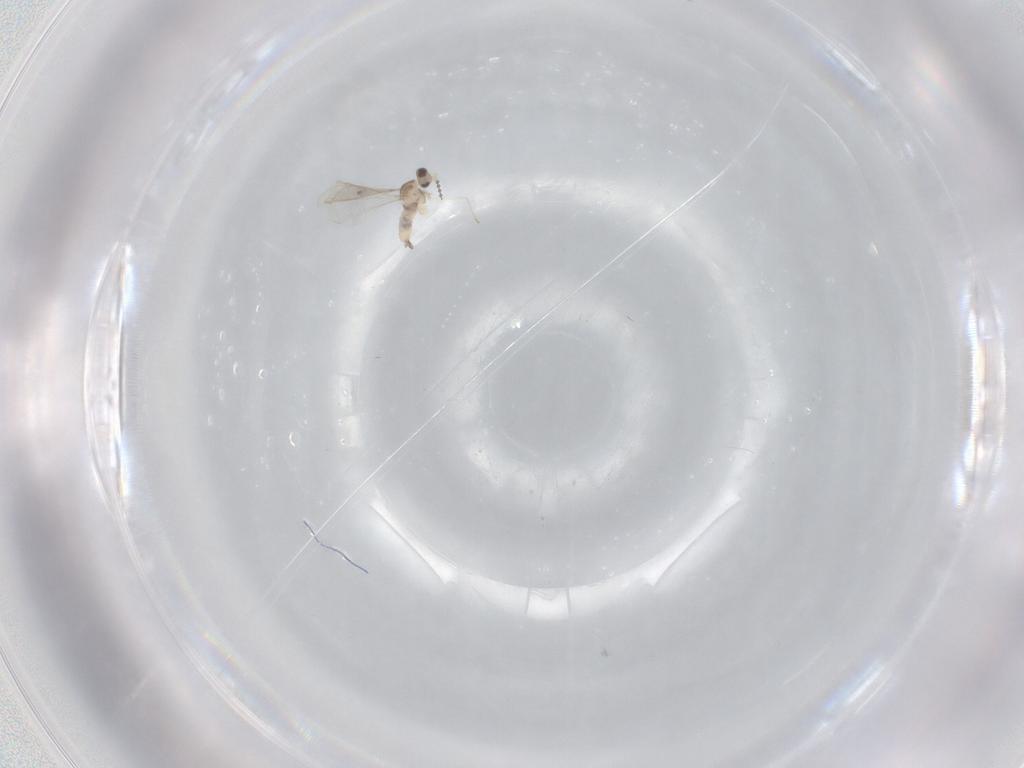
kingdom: Animalia
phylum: Arthropoda
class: Insecta
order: Diptera
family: Cecidomyiidae
